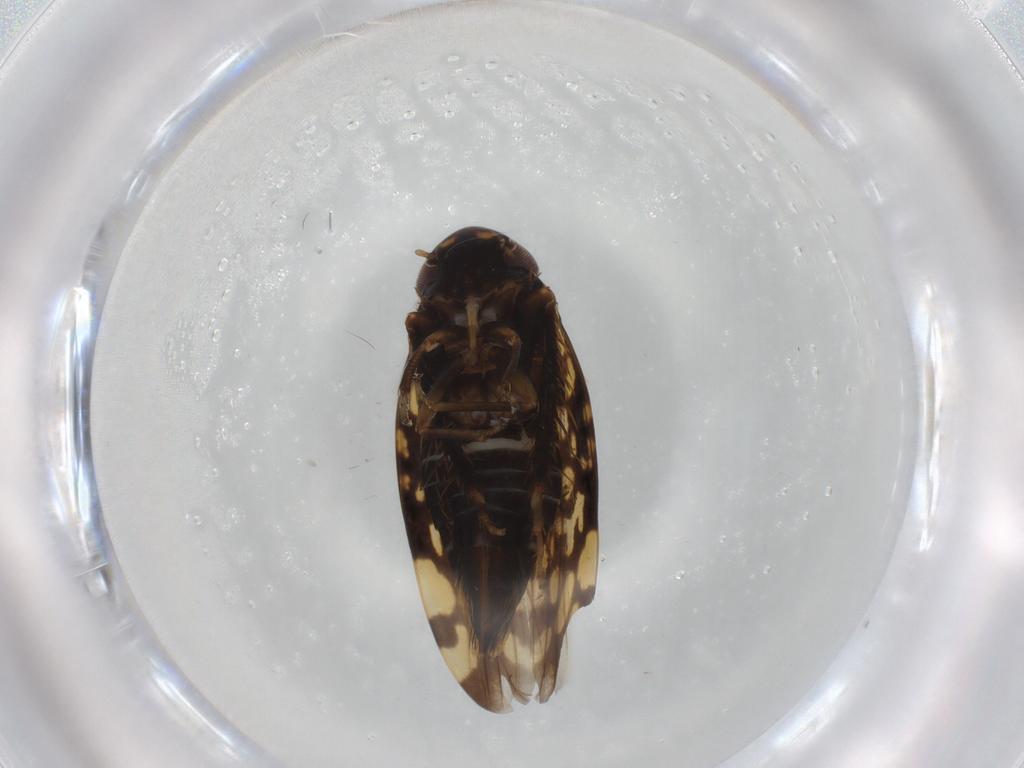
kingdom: Animalia
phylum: Arthropoda
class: Insecta
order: Hemiptera
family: Cicadellidae
